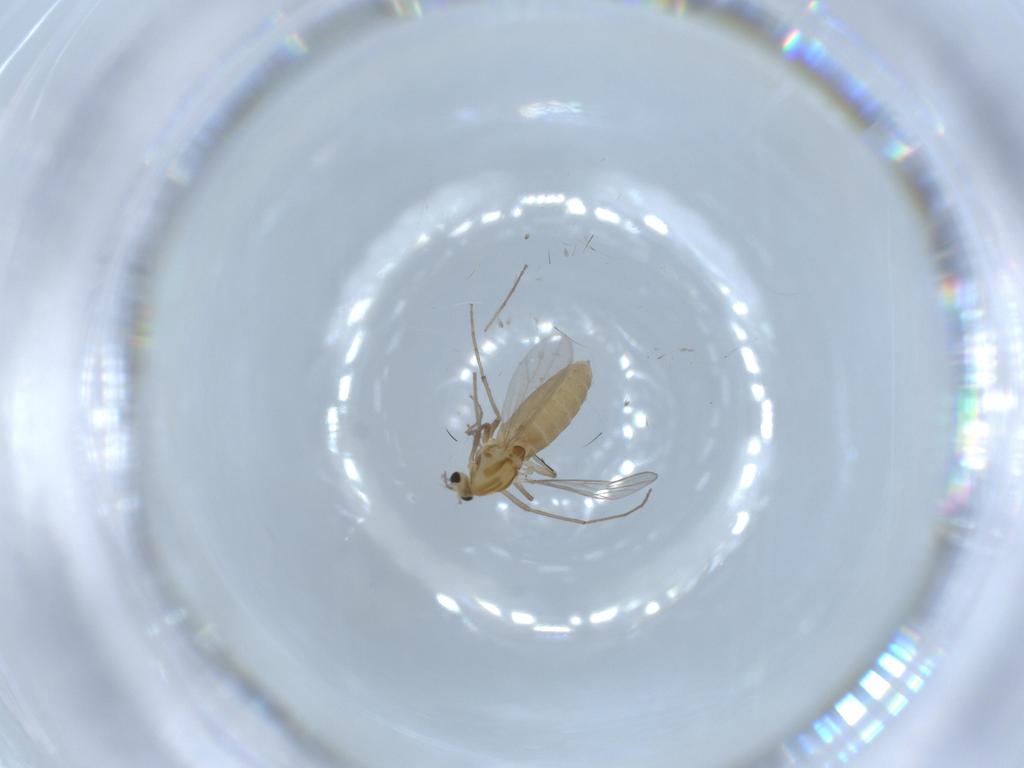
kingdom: Animalia
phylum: Arthropoda
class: Insecta
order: Diptera
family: Chironomidae
